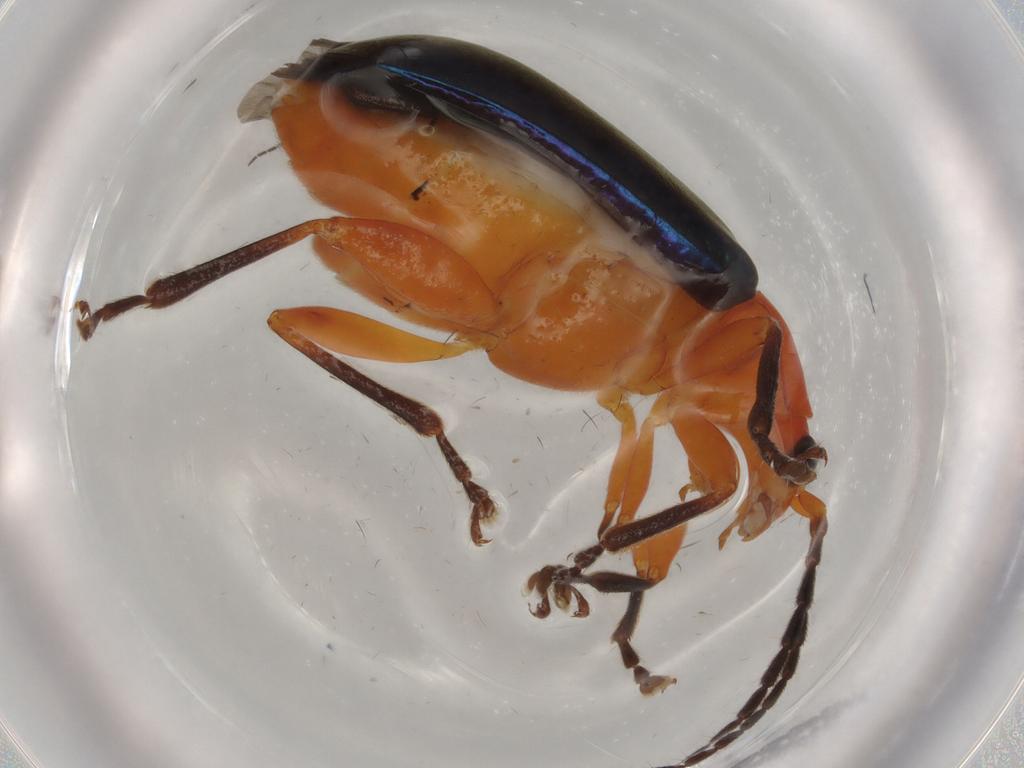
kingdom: Animalia
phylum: Arthropoda
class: Insecta
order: Coleoptera
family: Chrysomelidae
